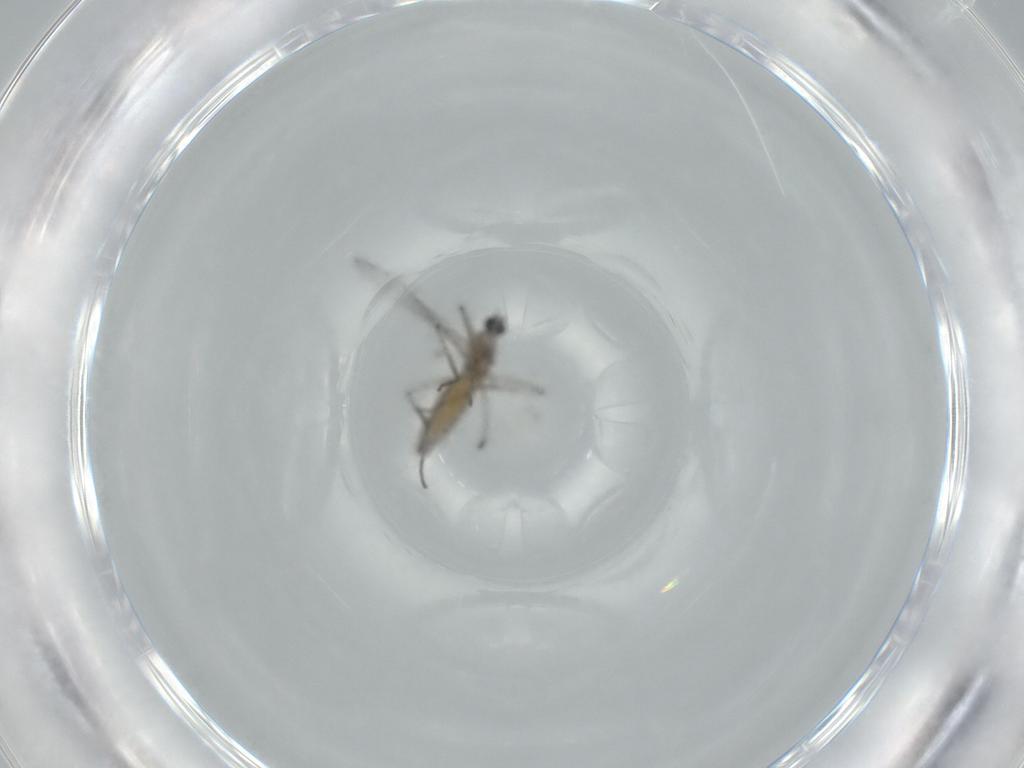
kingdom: Animalia
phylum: Arthropoda
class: Insecta
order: Diptera
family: Cecidomyiidae
